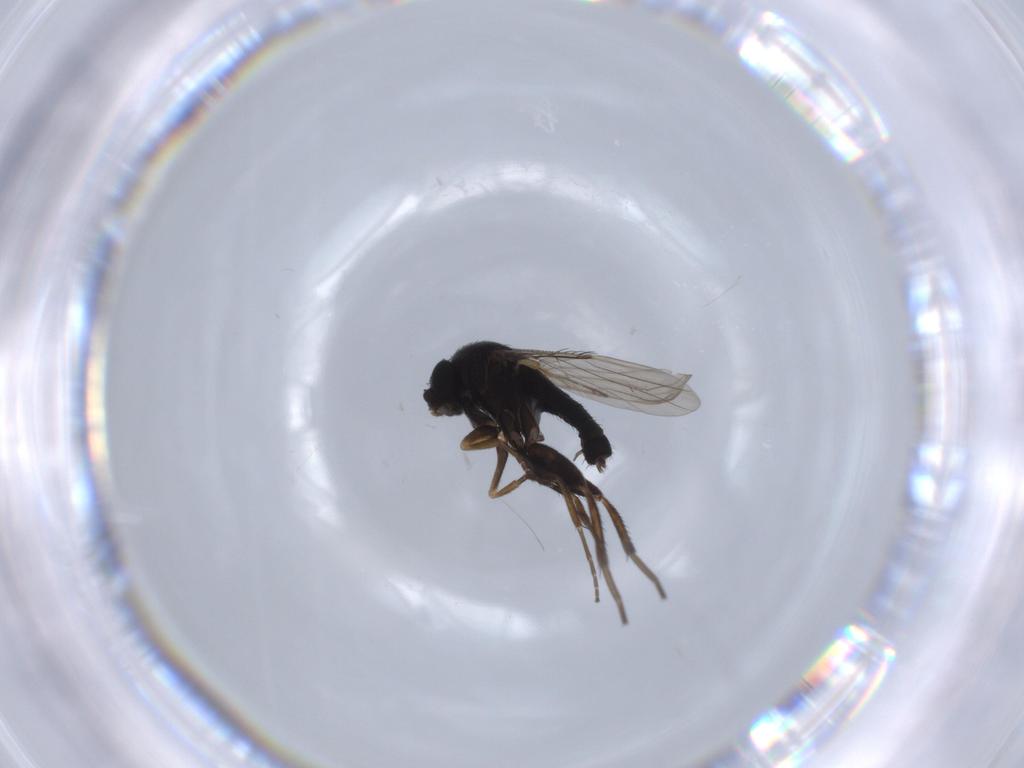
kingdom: Animalia
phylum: Arthropoda
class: Insecta
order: Diptera
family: Phoridae
